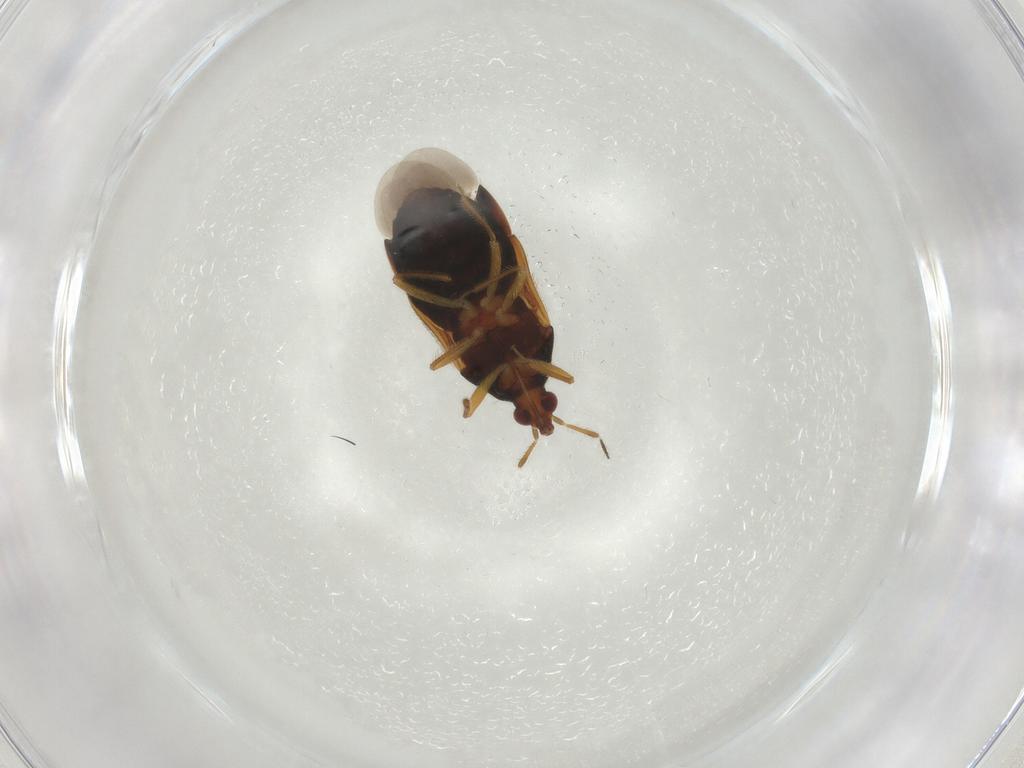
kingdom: Animalia
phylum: Arthropoda
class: Insecta
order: Hemiptera
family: Anthocoridae
